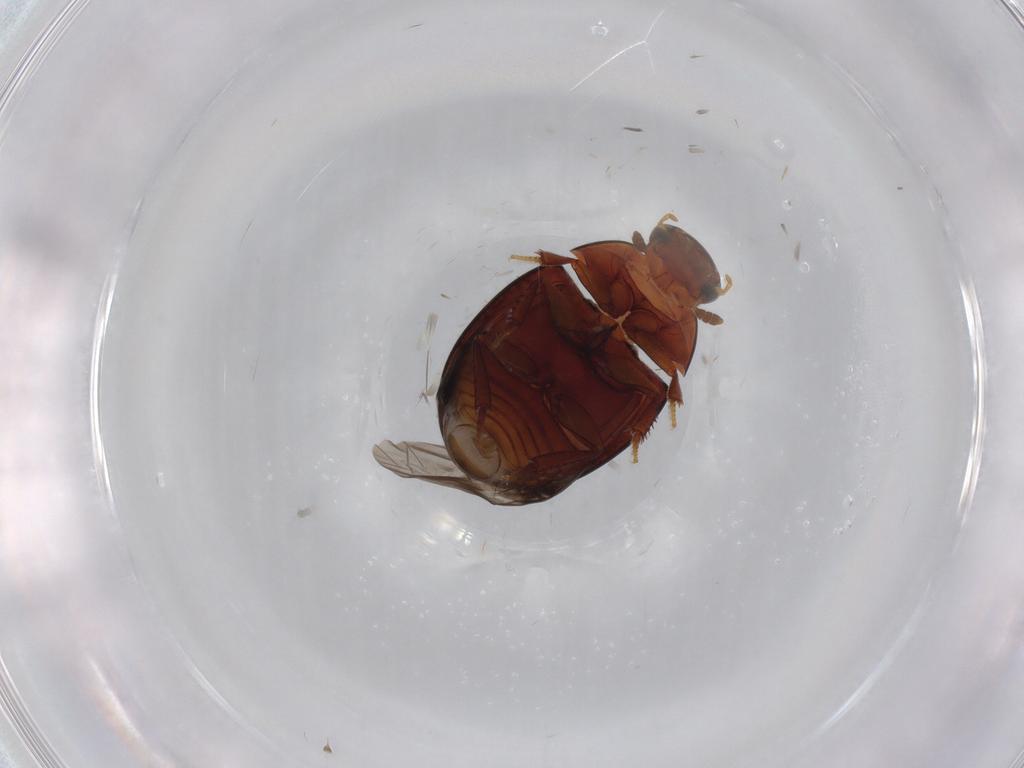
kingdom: Animalia
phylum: Arthropoda
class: Insecta
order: Coleoptera
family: Hydrophilidae
